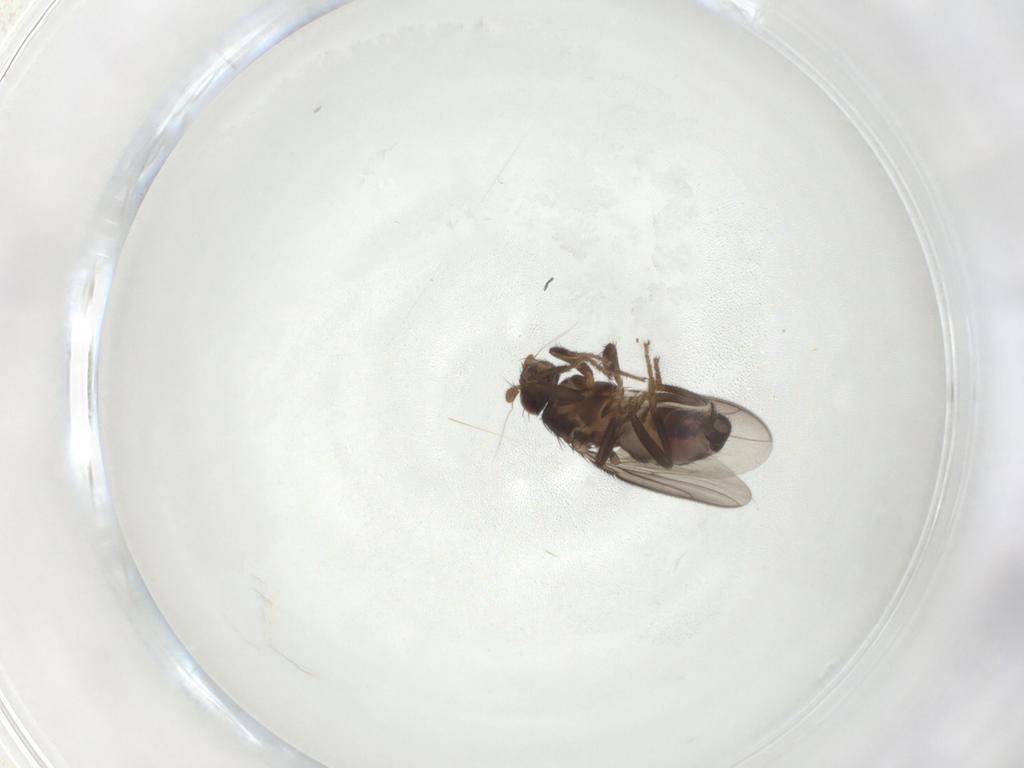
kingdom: Animalia
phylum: Arthropoda
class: Insecta
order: Diptera
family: Sphaeroceridae
